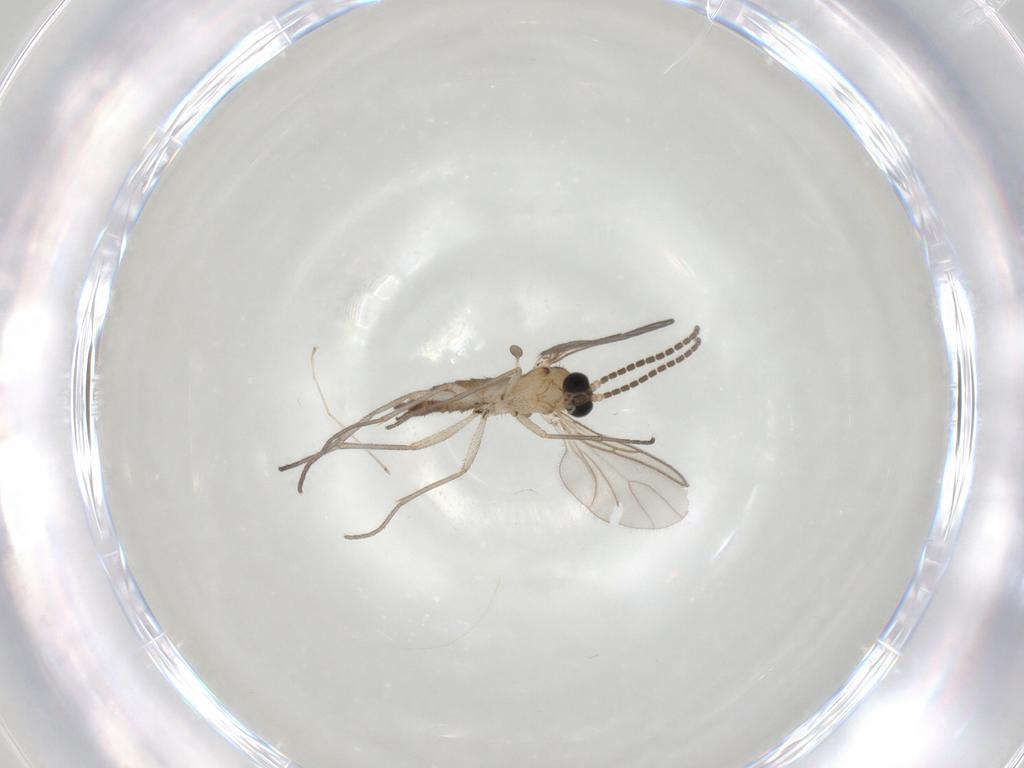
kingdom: Animalia
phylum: Arthropoda
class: Insecta
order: Diptera
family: Sciaridae
